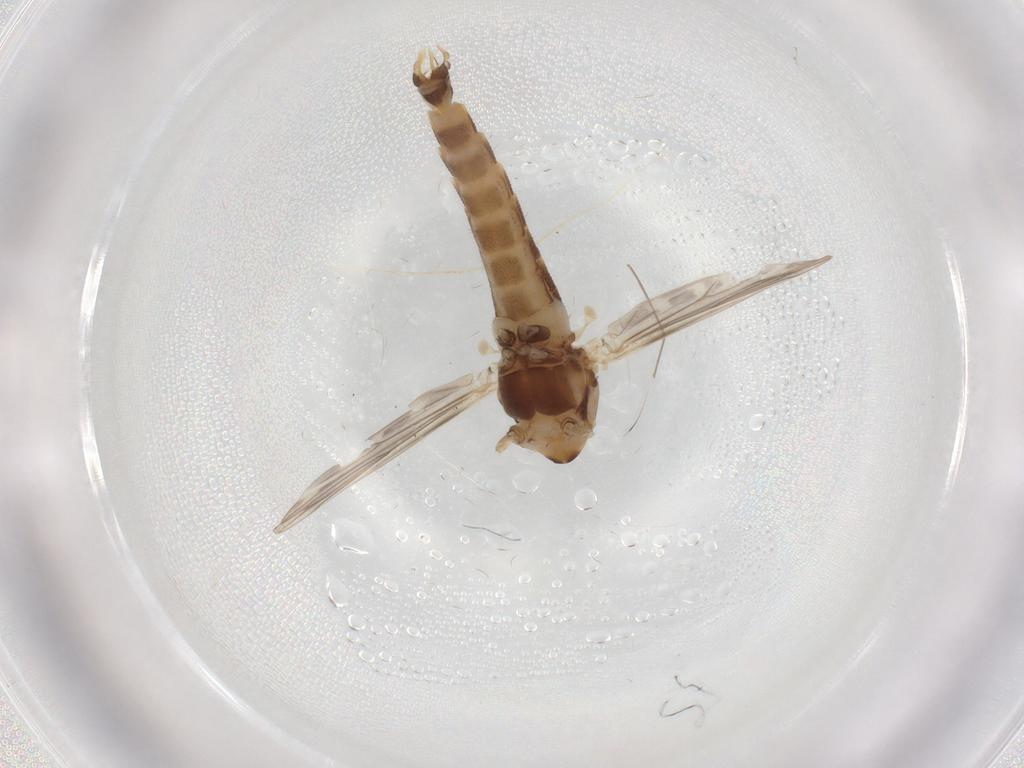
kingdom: Animalia
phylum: Arthropoda
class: Insecta
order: Diptera
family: Chironomidae
